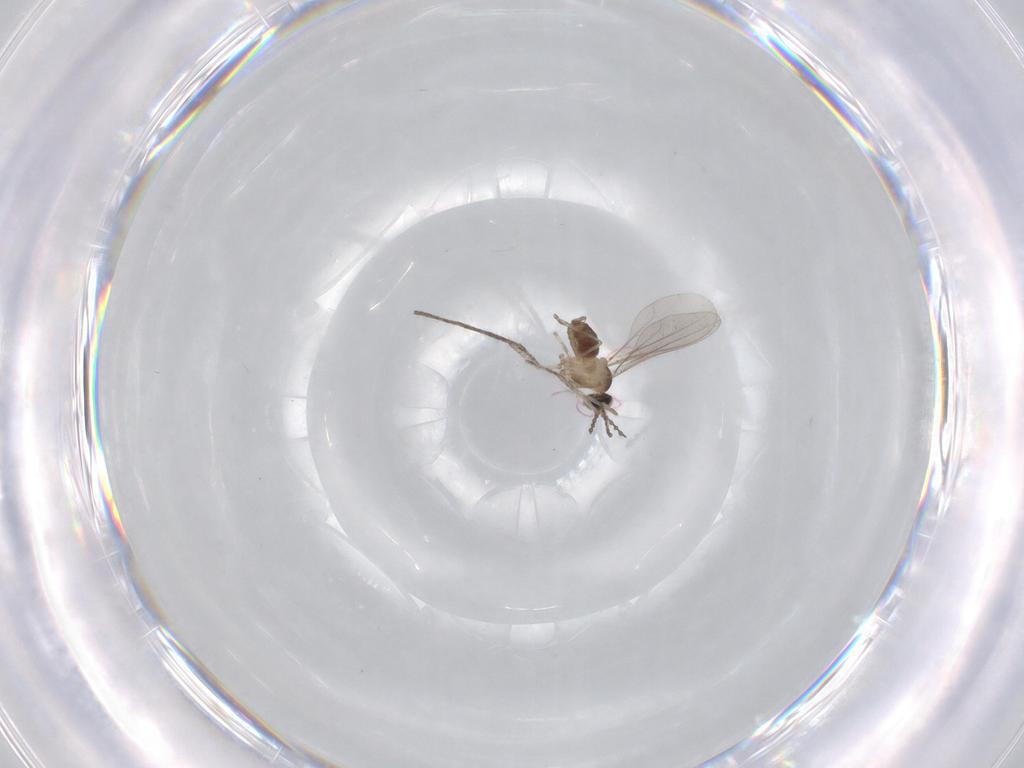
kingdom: Animalia
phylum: Arthropoda
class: Insecta
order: Diptera
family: Cecidomyiidae
